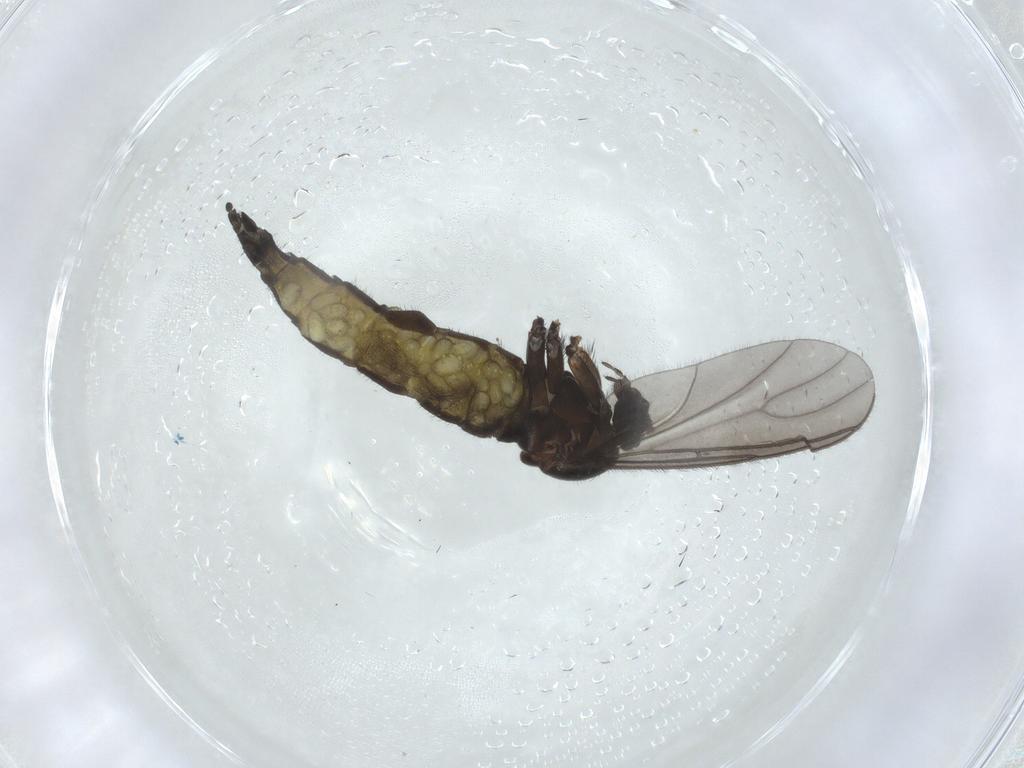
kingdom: Animalia
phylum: Arthropoda
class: Insecta
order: Diptera
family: Sciaridae
